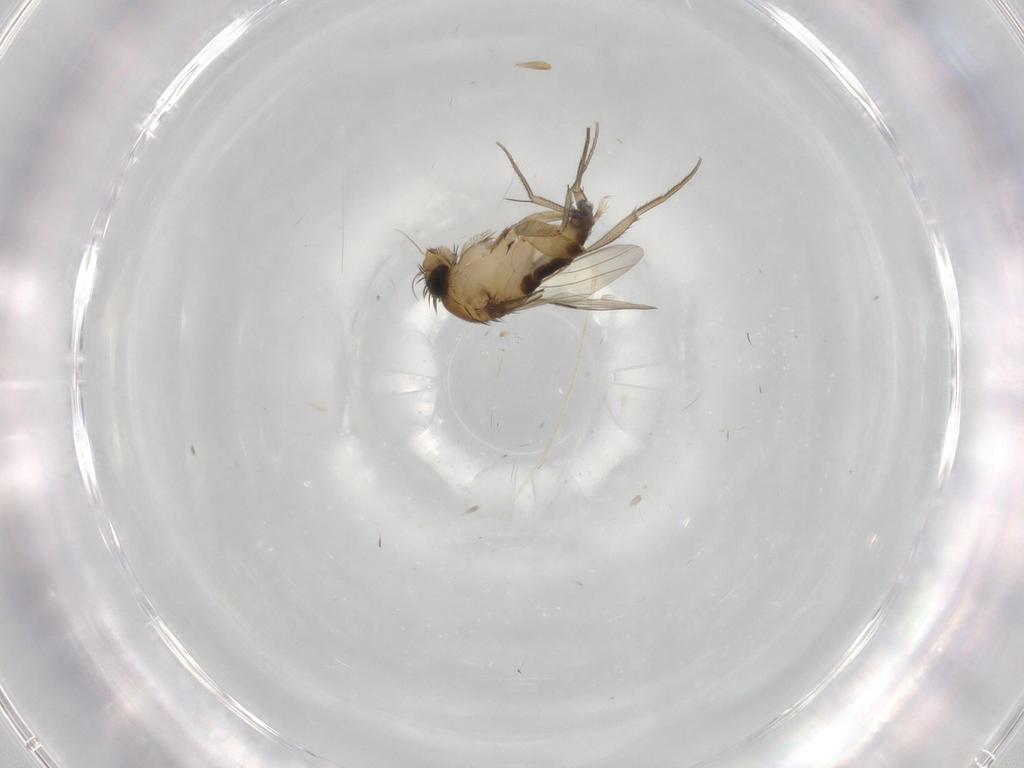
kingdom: Animalia
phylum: Arthropoda
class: Insecta
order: Diptera
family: Phoridae
